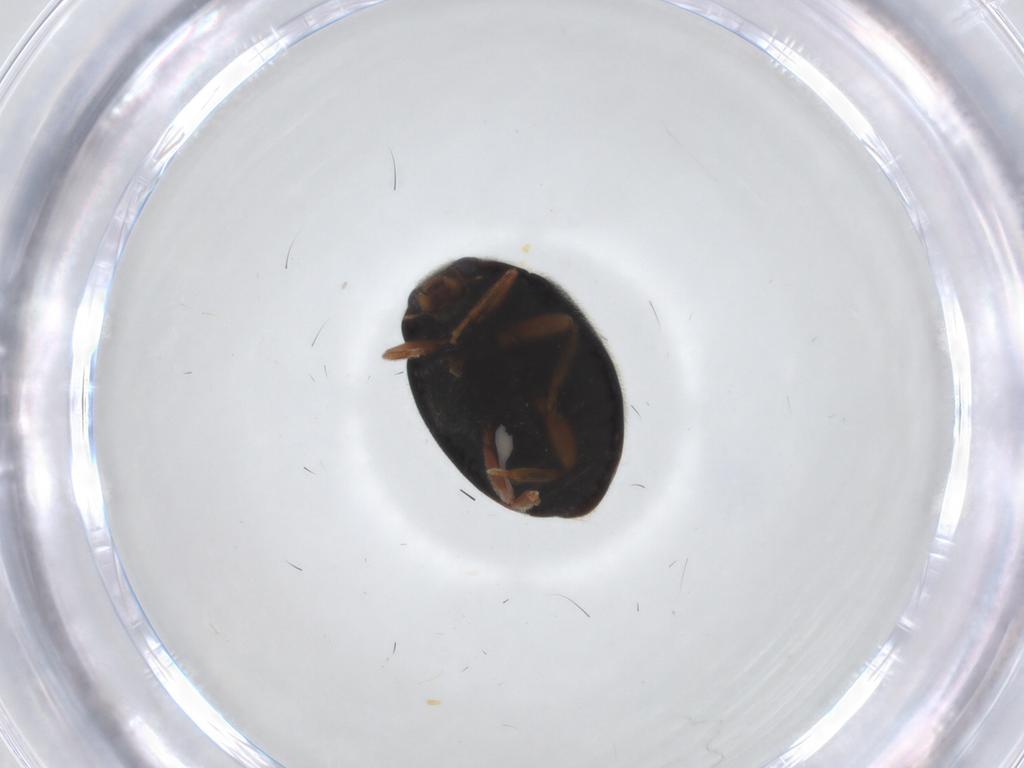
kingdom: Animalia
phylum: Arthropoda
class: Insecta
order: Coleoptera
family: Coccinellidae
